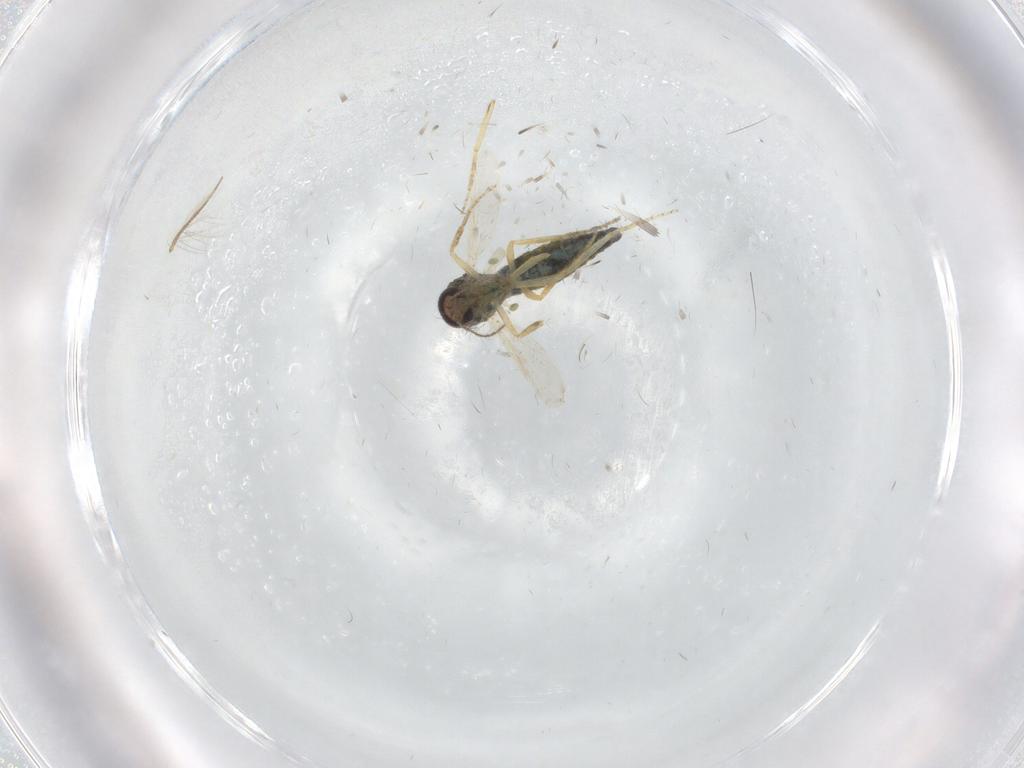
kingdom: Animalia
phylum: Arthropoda
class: Insecta
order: Diptera
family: Ceratopogonidae
